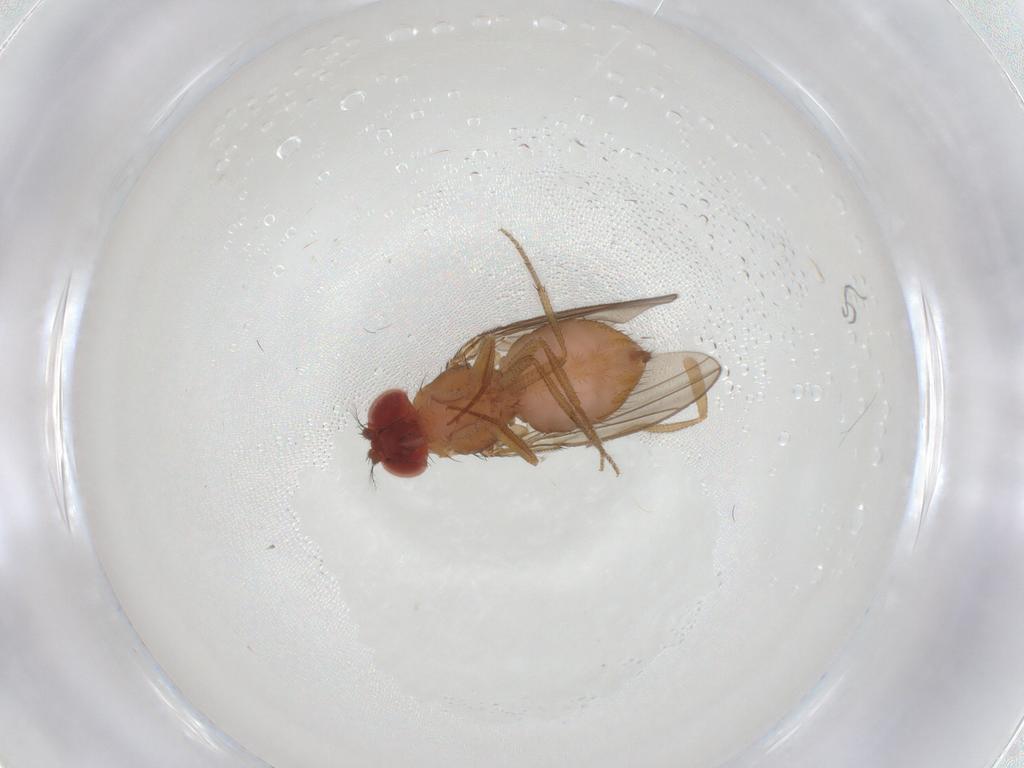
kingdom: Animalia
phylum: Arthropoda
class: Insecta
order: Diptera
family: Drosophilidae
